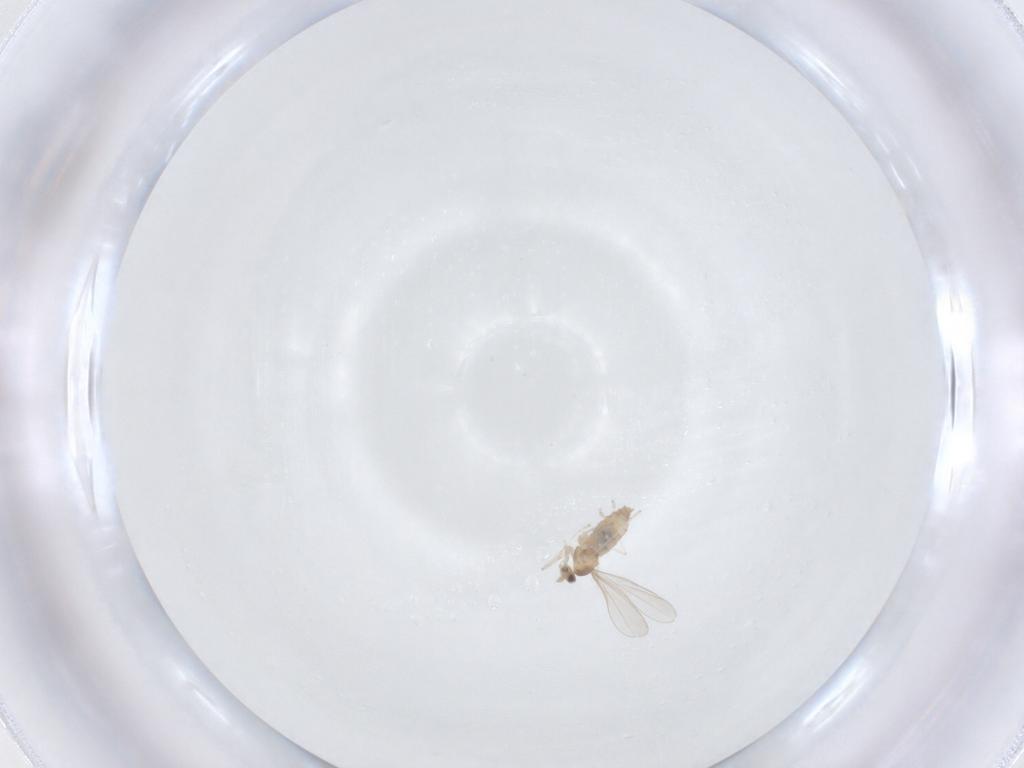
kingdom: Animalia
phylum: Arthropoda
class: Insecta
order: Diptera
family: Cecidomyiidae
